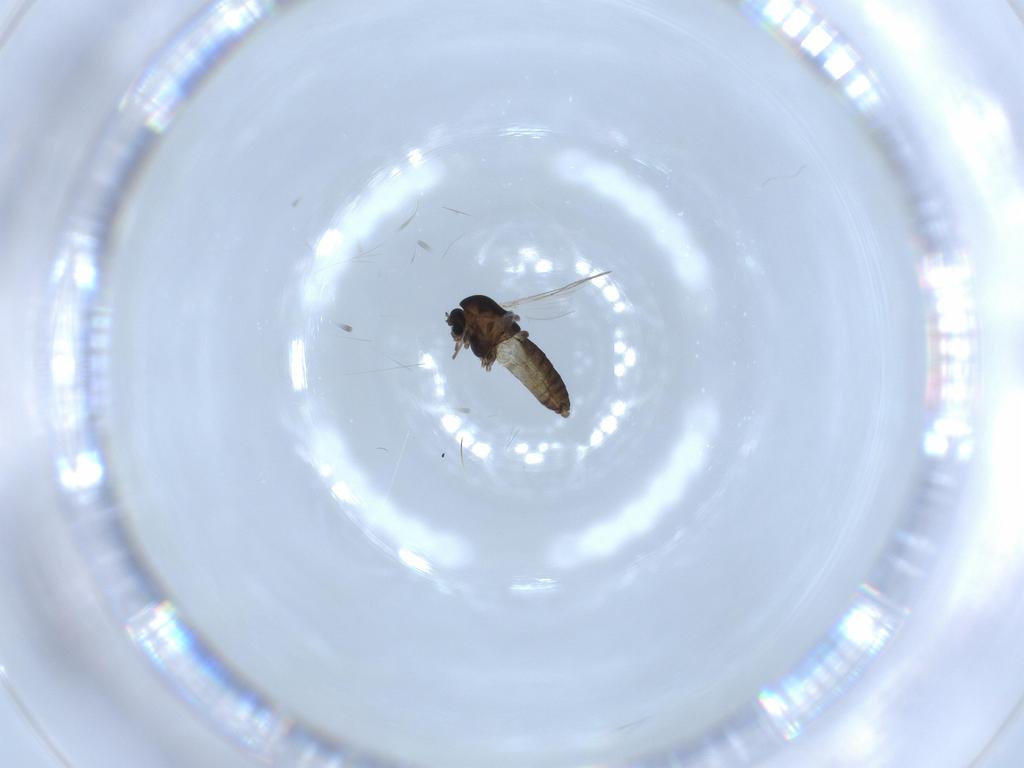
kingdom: Animalia
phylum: Arthropoda
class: Insecta
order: Diptera
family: Chironomidae
